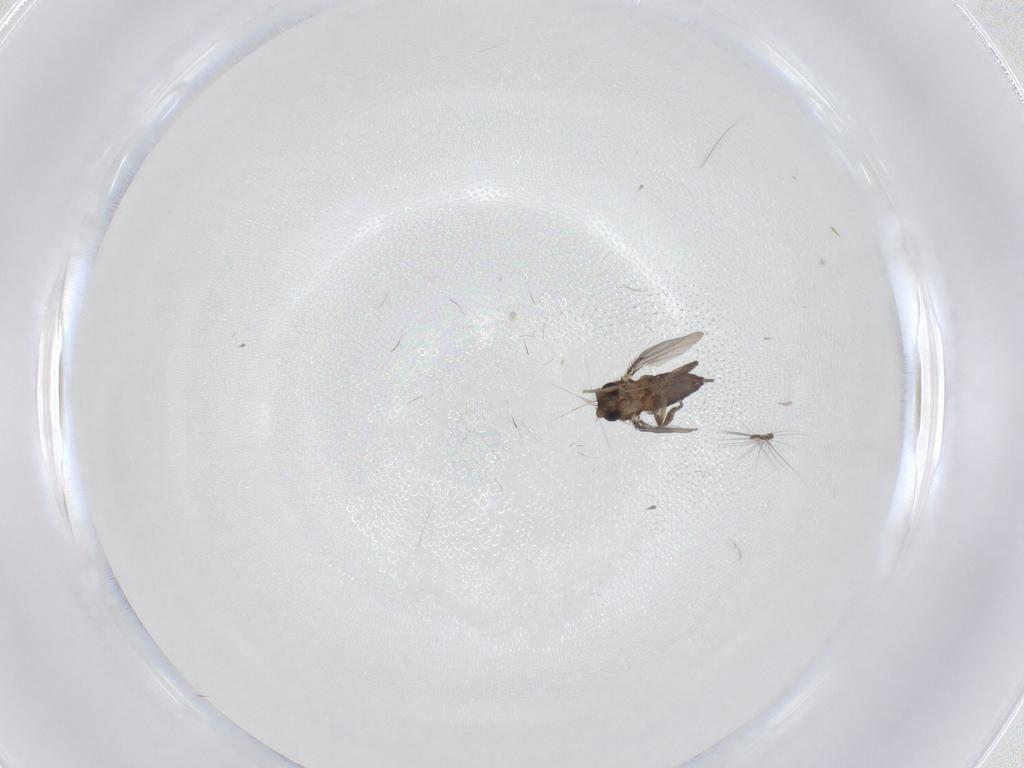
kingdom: Animalia
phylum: Arthropoda
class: Insecta
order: Diptera
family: Phoridae
